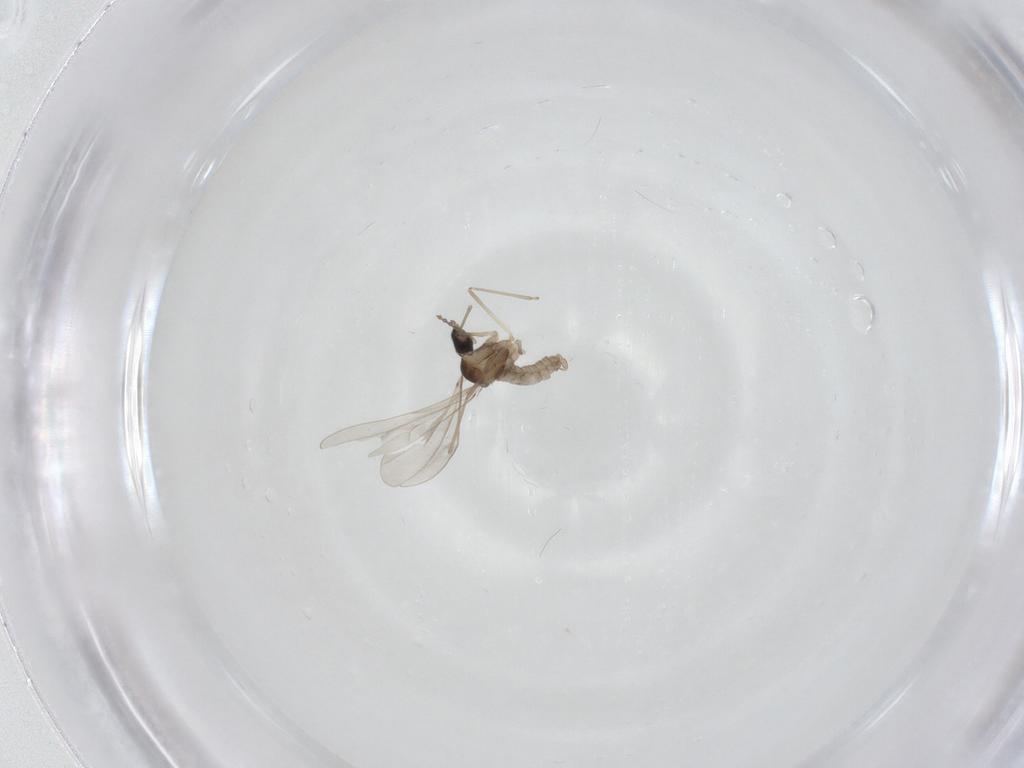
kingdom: Animalia
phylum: Arthropoda
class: Insecta
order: Diptera
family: Cecidomyiidae
